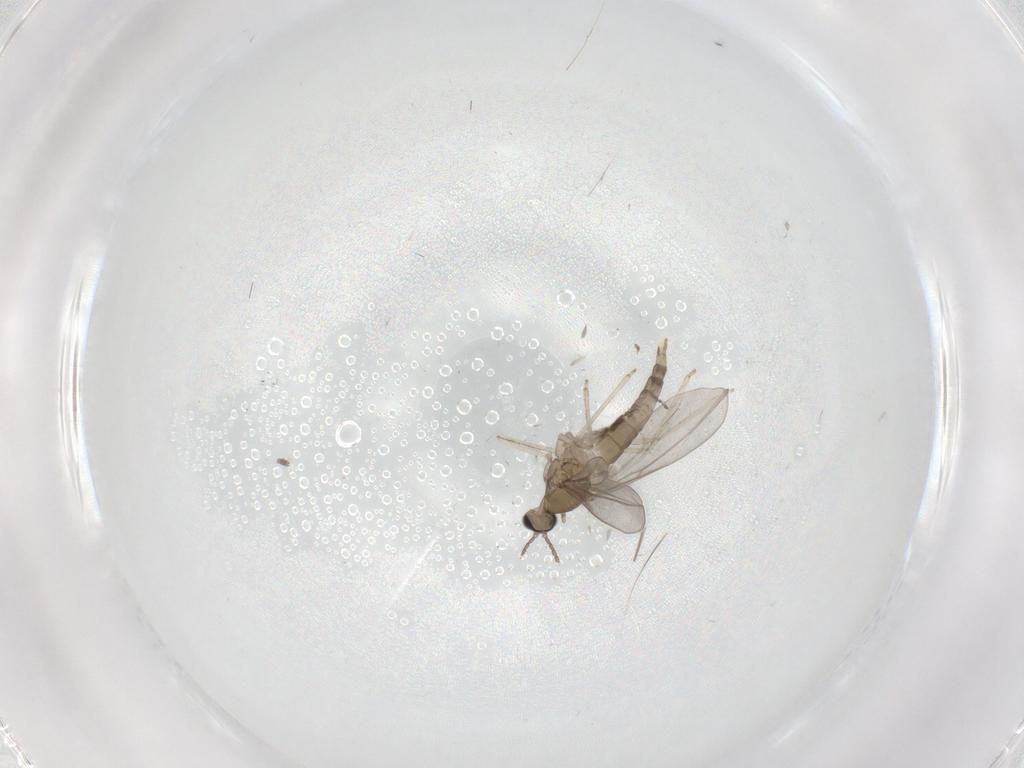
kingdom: Animalia
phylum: Arthropoda
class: Insecta
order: Diptera
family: Cecidomyiidae
